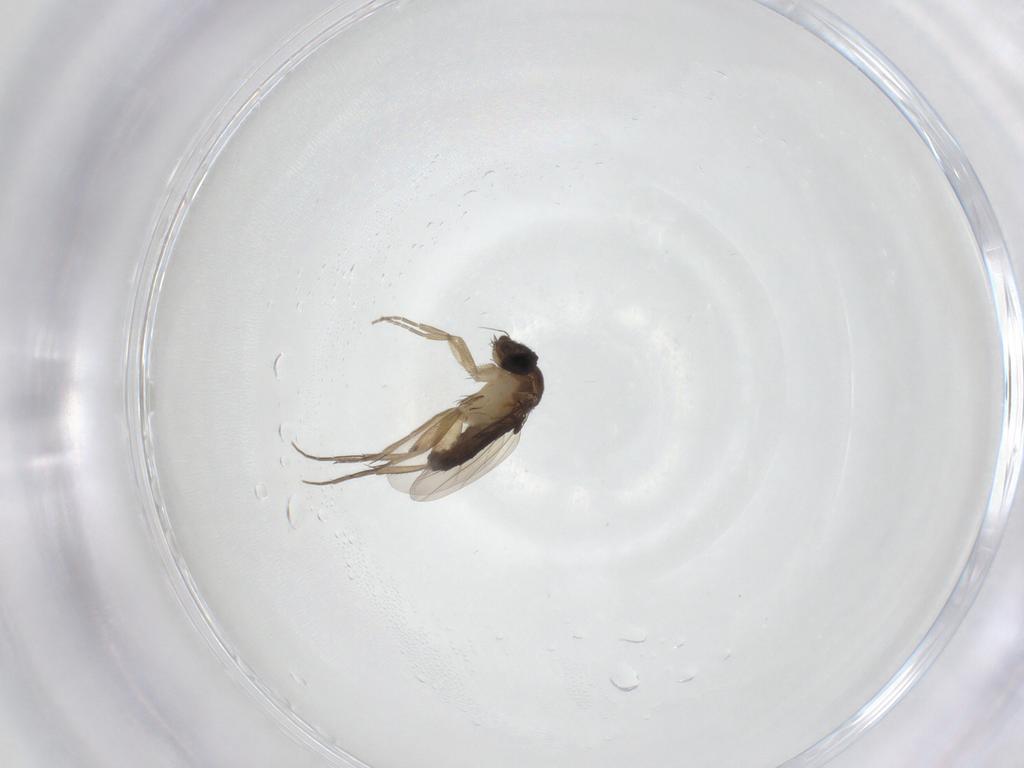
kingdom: Animalia
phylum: Arthropoda
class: Insecta
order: Diptera
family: Phoridae
